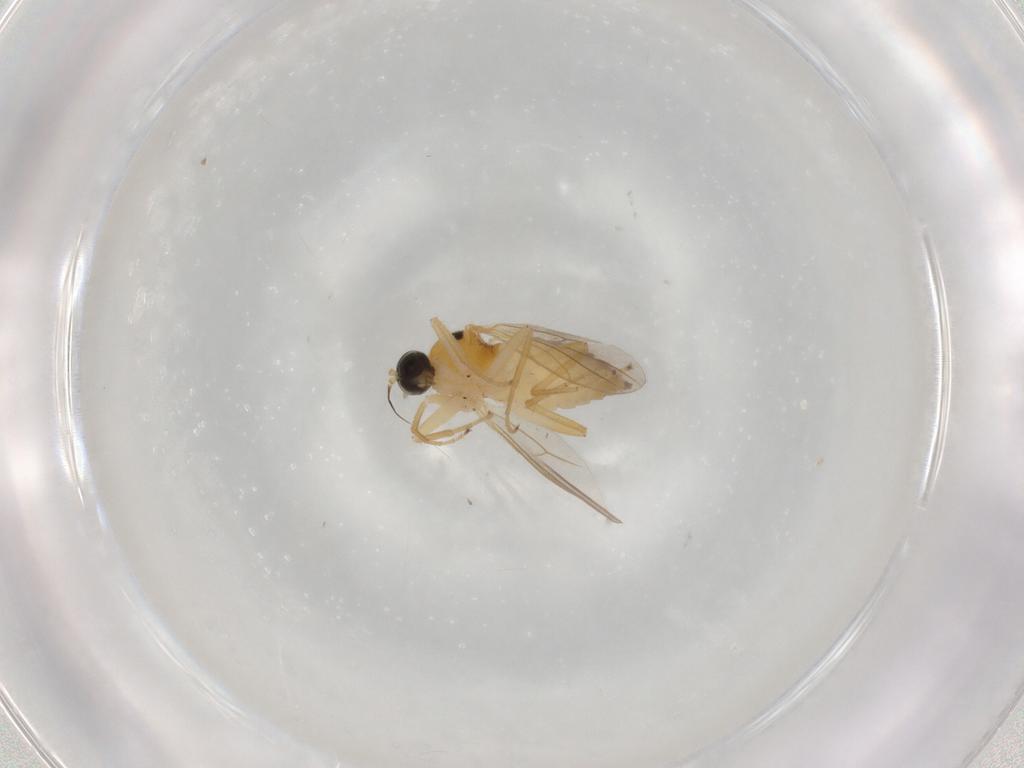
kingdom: Animalia
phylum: Arthropoda
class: Insecta
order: Diptera
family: Hybotidae
